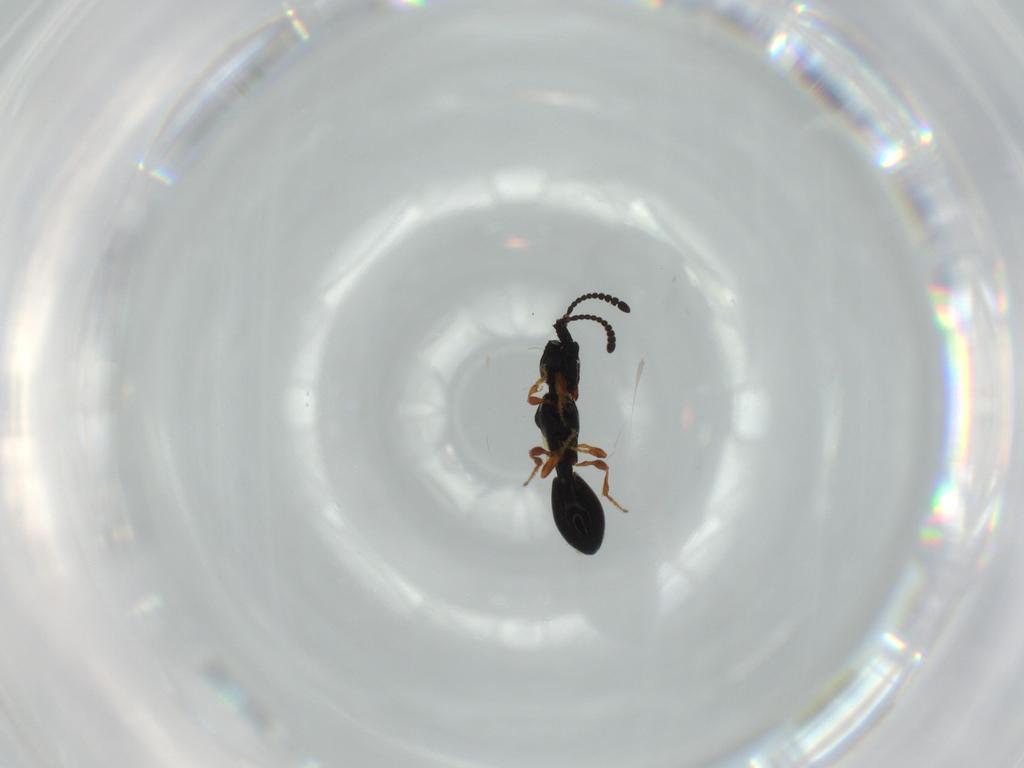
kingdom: Animalia
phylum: Arthropoda
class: Insecta
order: Hymenoptera
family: Diapriidae
